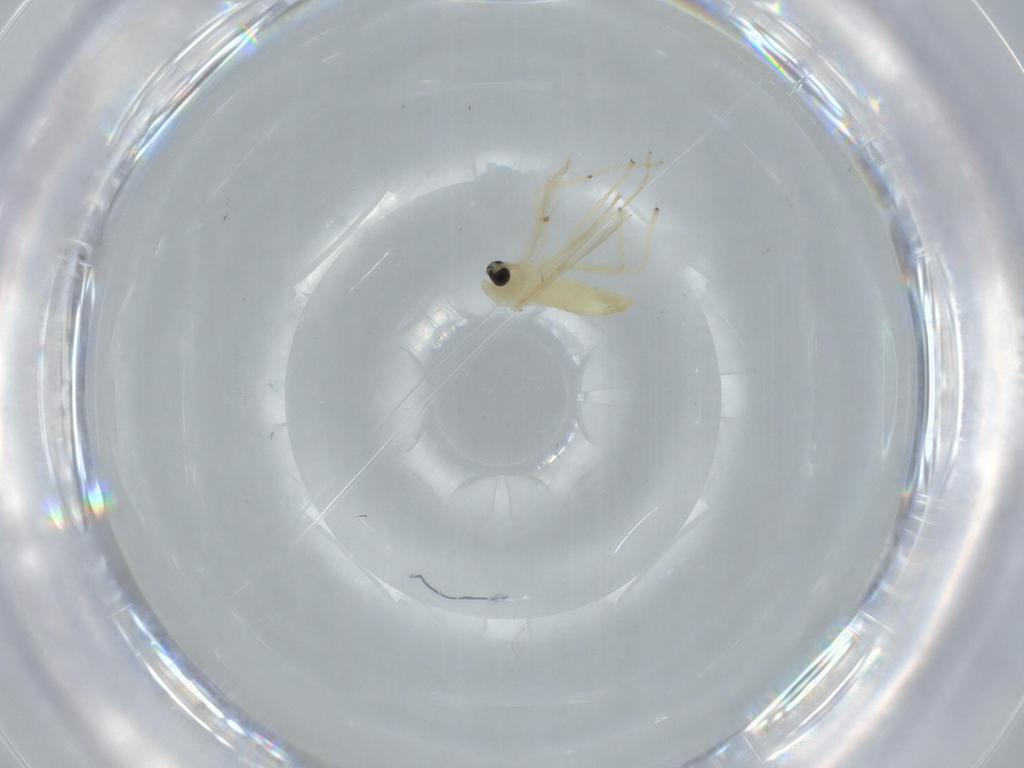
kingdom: Animalia
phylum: Arthropoda
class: Insecta
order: Diptera
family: Chironomidae
